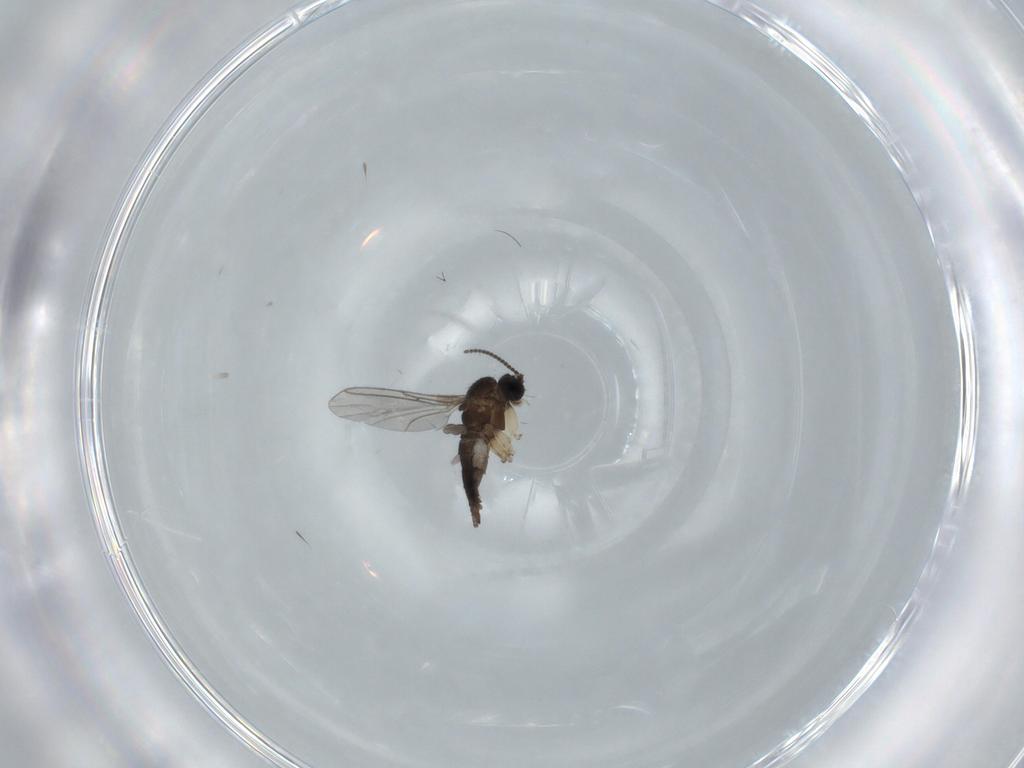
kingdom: Animalia
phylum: Arthropoda
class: Insecta
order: Diptera
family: Sciaridae
